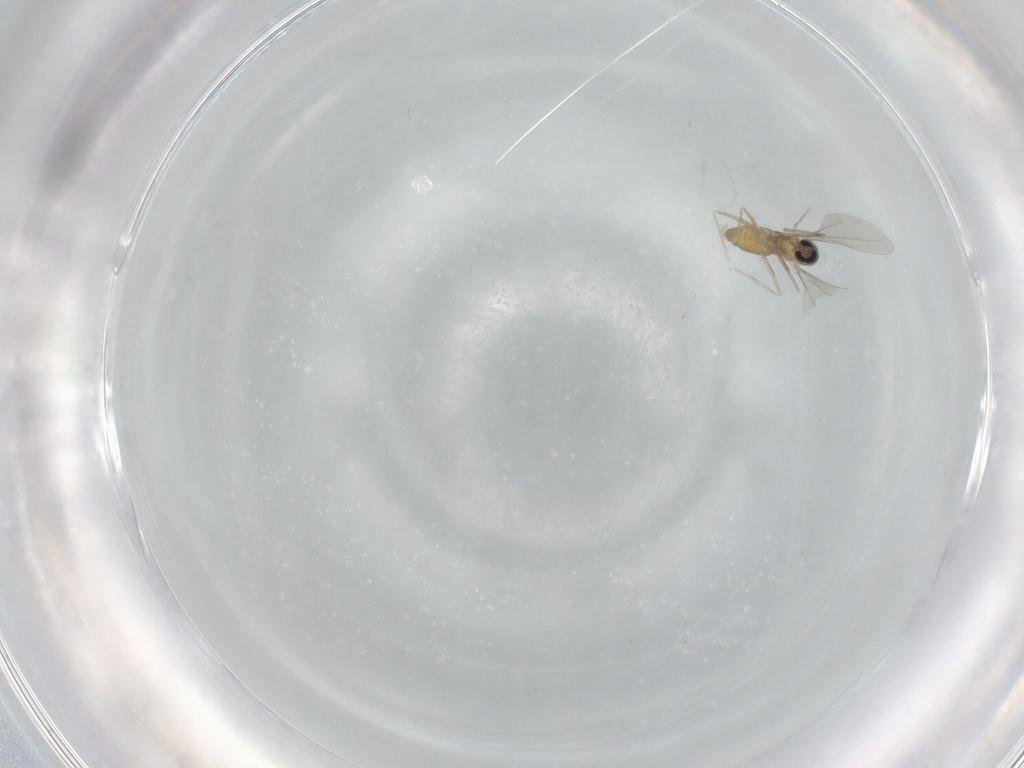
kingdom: Animalia
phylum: Arthropoda
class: Insecta
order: Diptera
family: Cecidomyiidae
